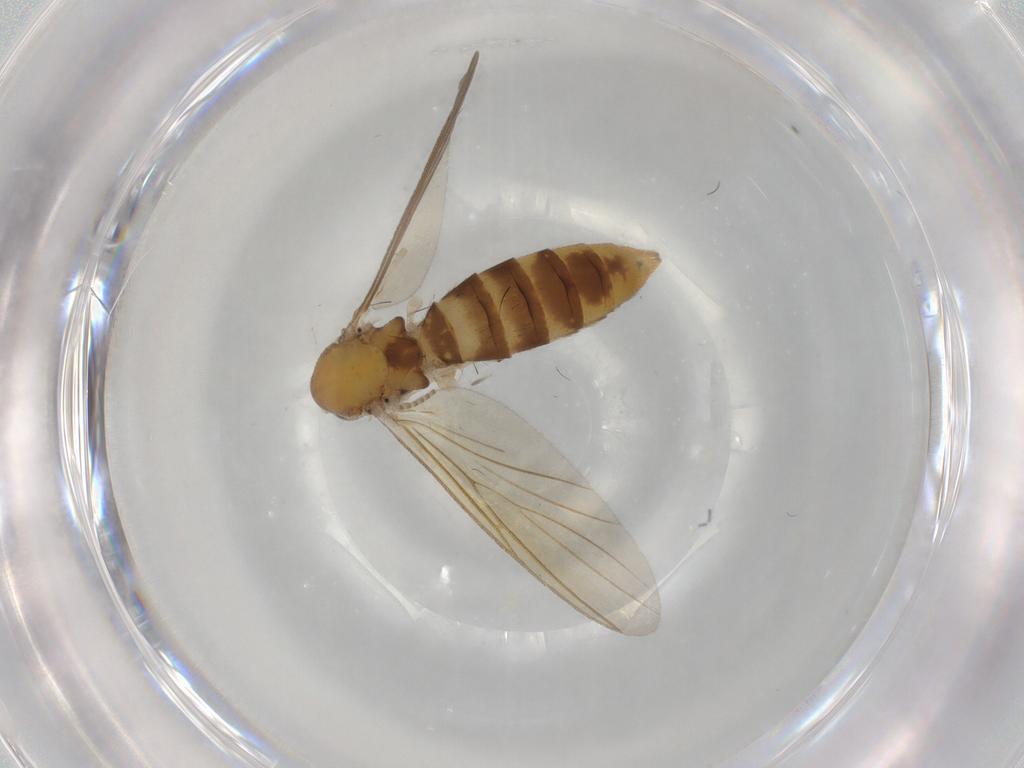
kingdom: Animalia
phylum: Arthropoda
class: Insecta
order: Diptera
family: Mycetophilidae
